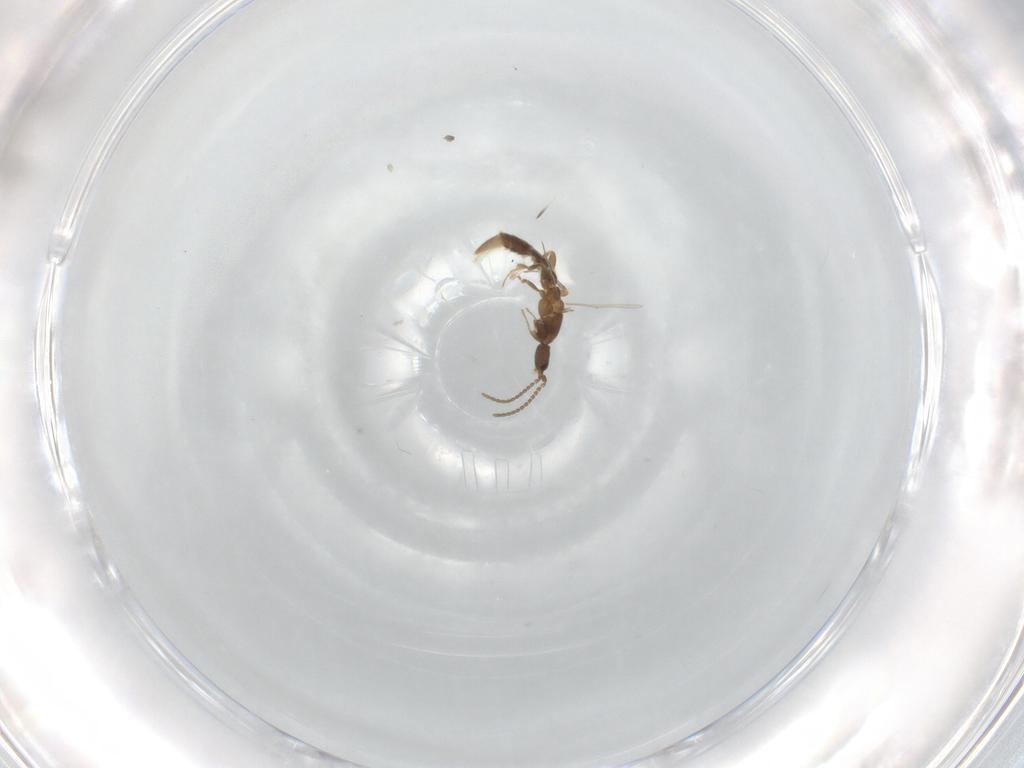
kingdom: Animalia
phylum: Arthropoda
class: Insecta
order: Hymenoptera
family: Formicidae
